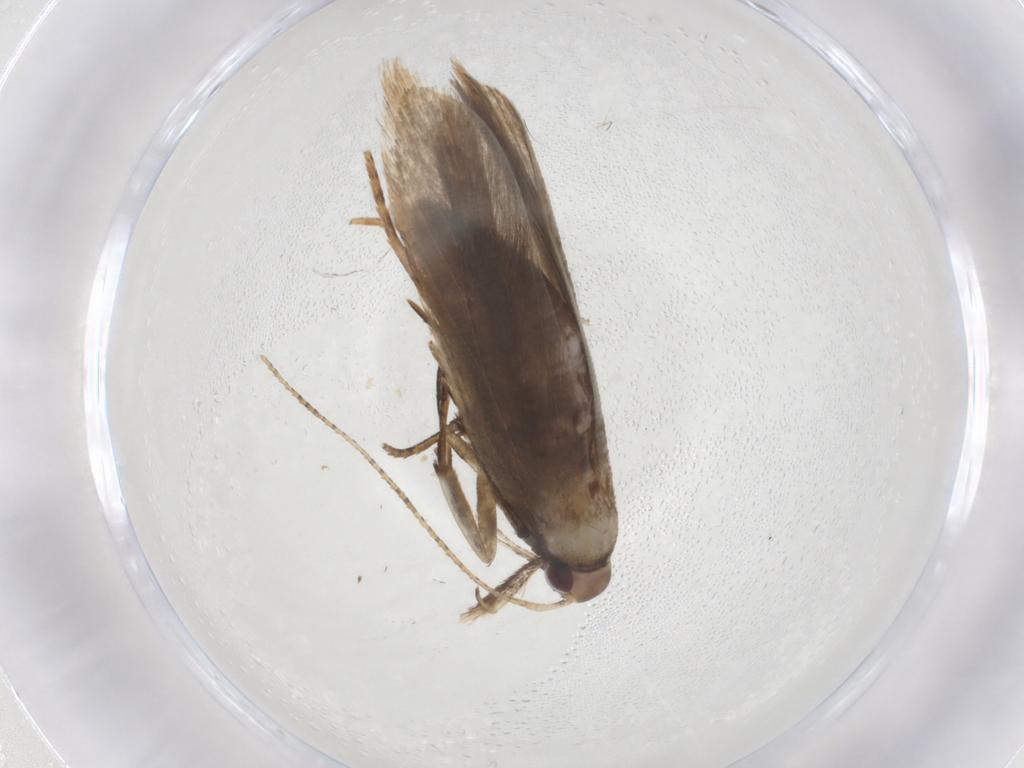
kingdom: Animalia
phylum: Arthropoda
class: Insecta
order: Lepidoptera
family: Depressariidae
